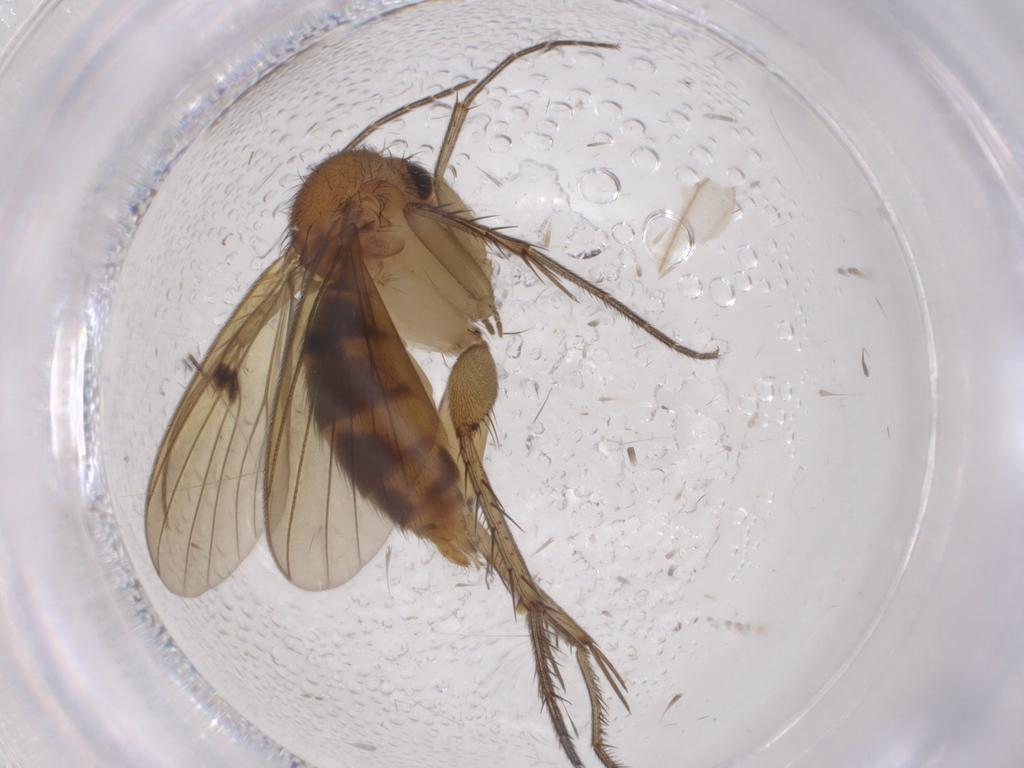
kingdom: Animalia
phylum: Arthropoda
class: Insecta
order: Diptera
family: Mycetophilidae
